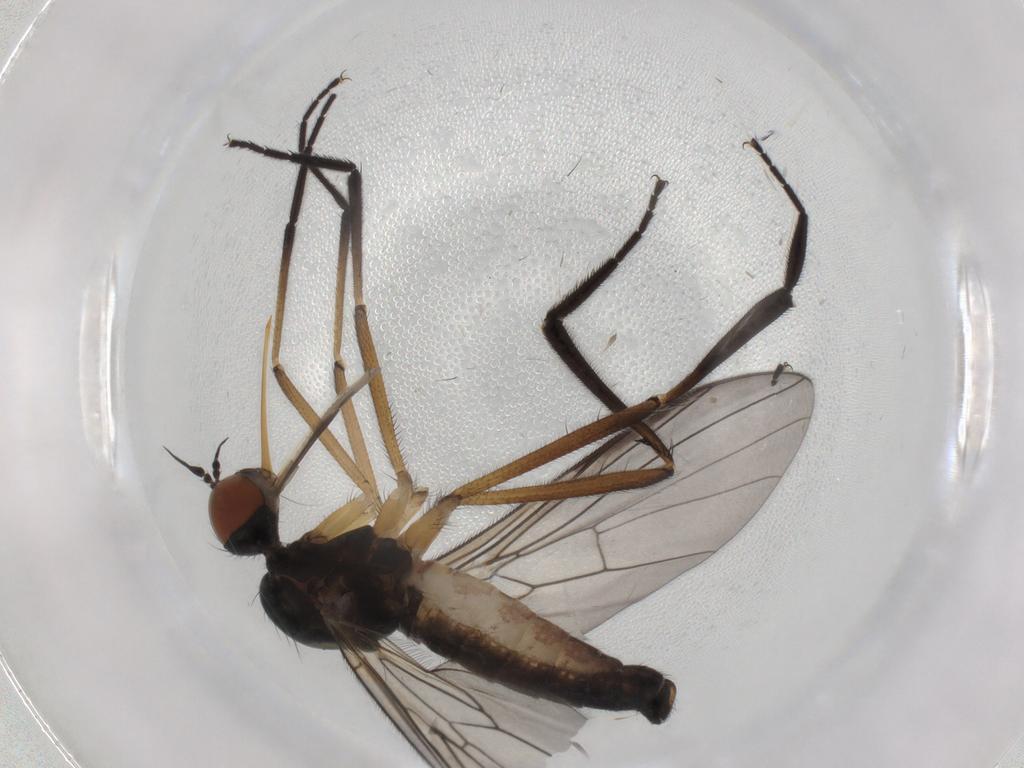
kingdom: Animalia
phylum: Arthropoda
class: Insecta
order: Diptera
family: Empididae
